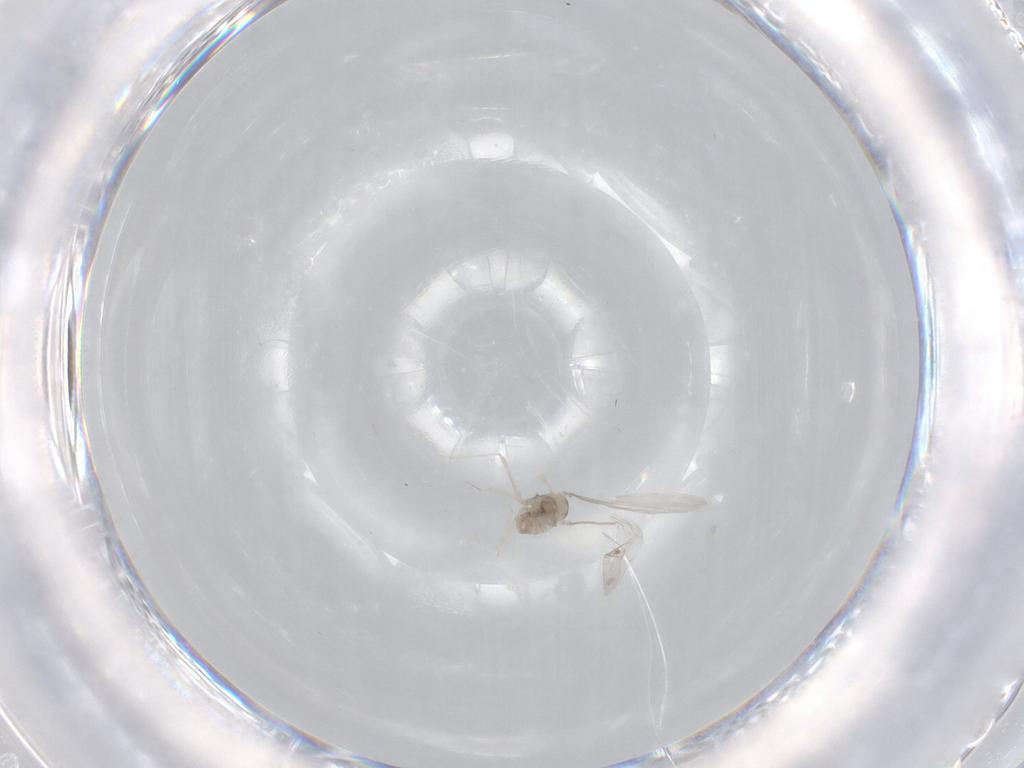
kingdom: Animalia
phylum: Arthropoda
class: Insecta
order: Diptera
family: Cecidomyiidae
